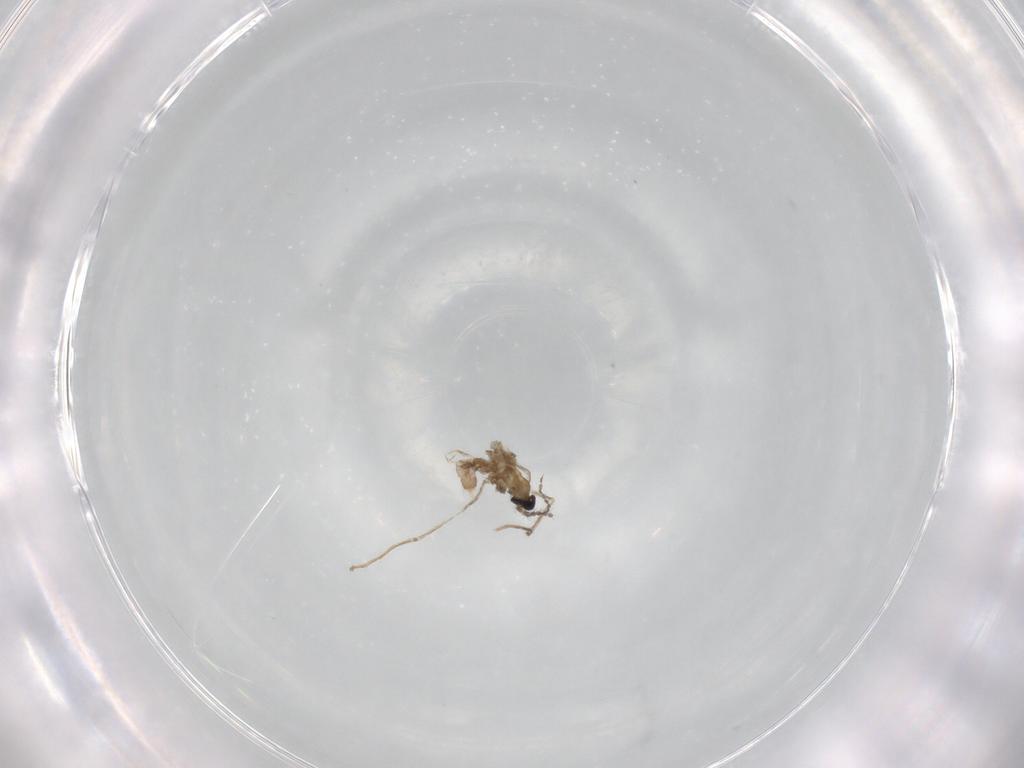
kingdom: Animalia
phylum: Arthropoda
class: Insecta
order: Diptera
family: Cecidomyiidae
